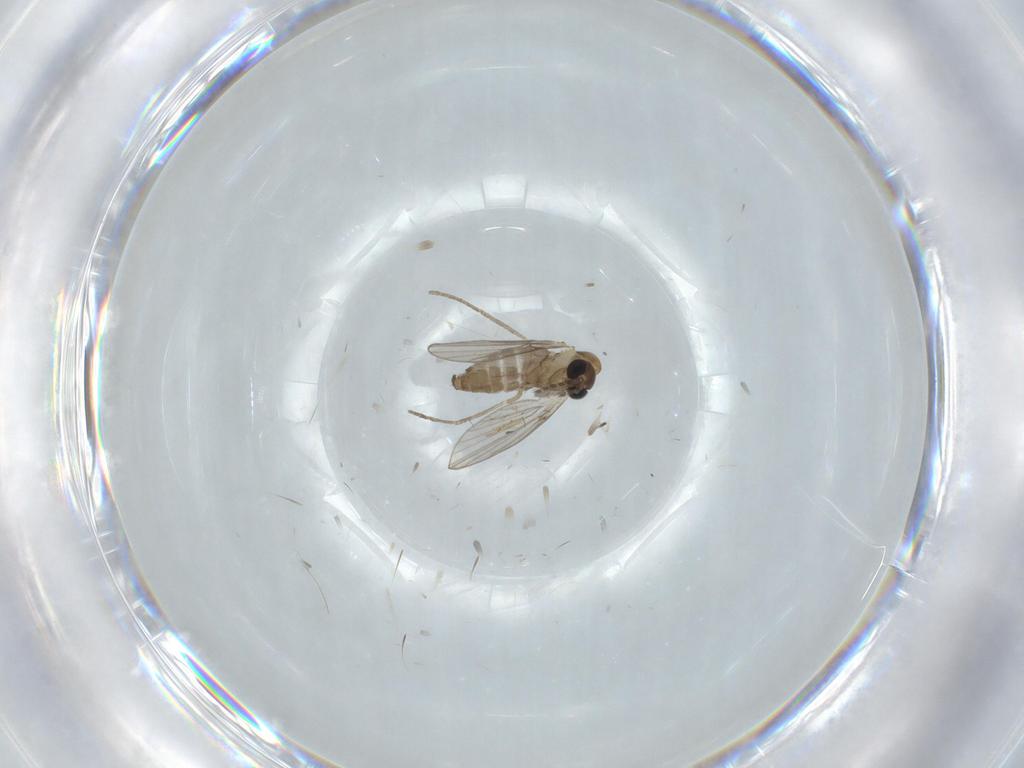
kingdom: Animalia
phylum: Arthropoda
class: Insecta
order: Diptera
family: Psychodidae
